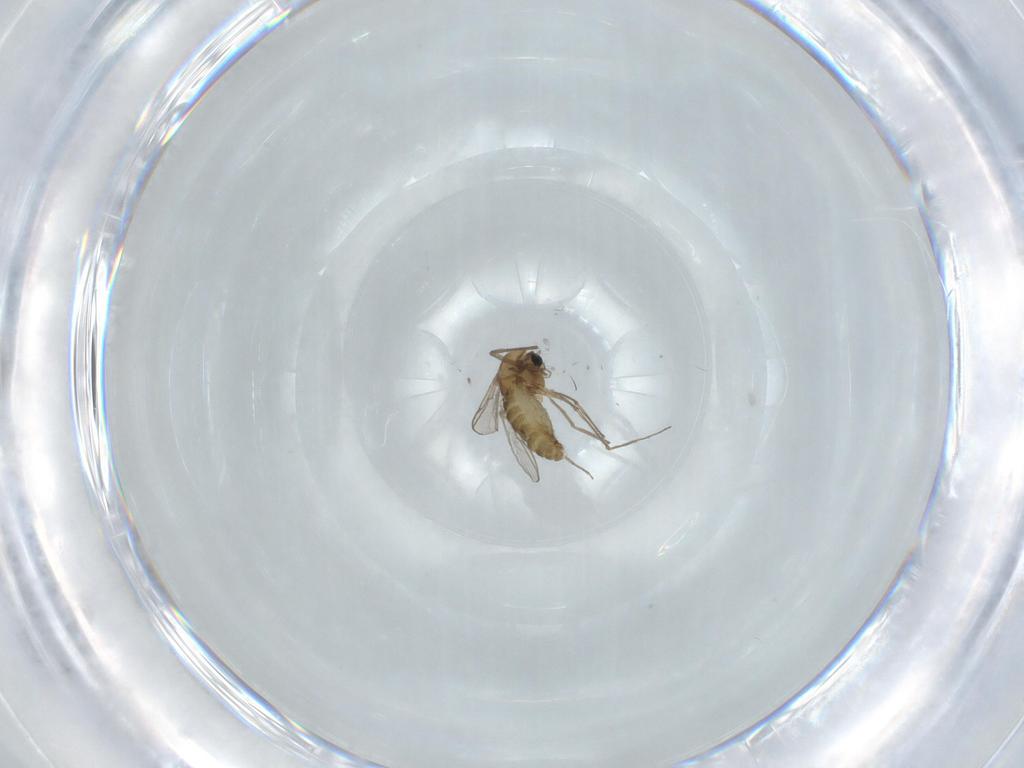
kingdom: Animalia
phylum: Arthropoda
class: Insecta
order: Diptera
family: Chironomidae
